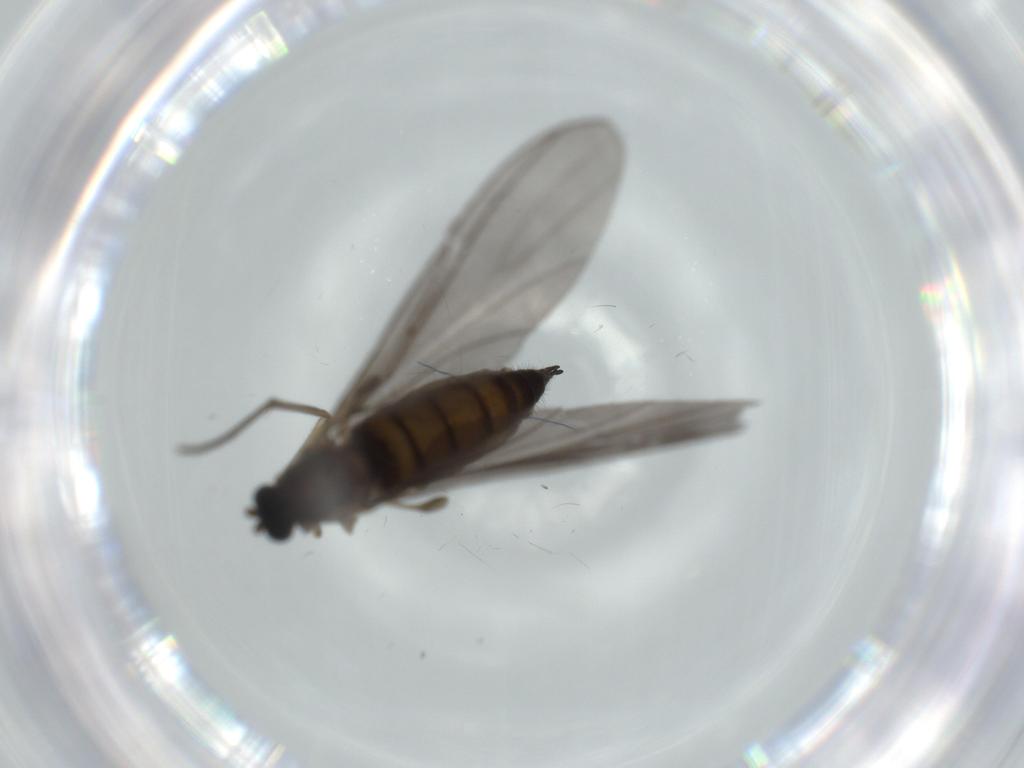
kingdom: Animalia
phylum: Arthropoda
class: Insecta
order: Diptera
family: Sciaridae
